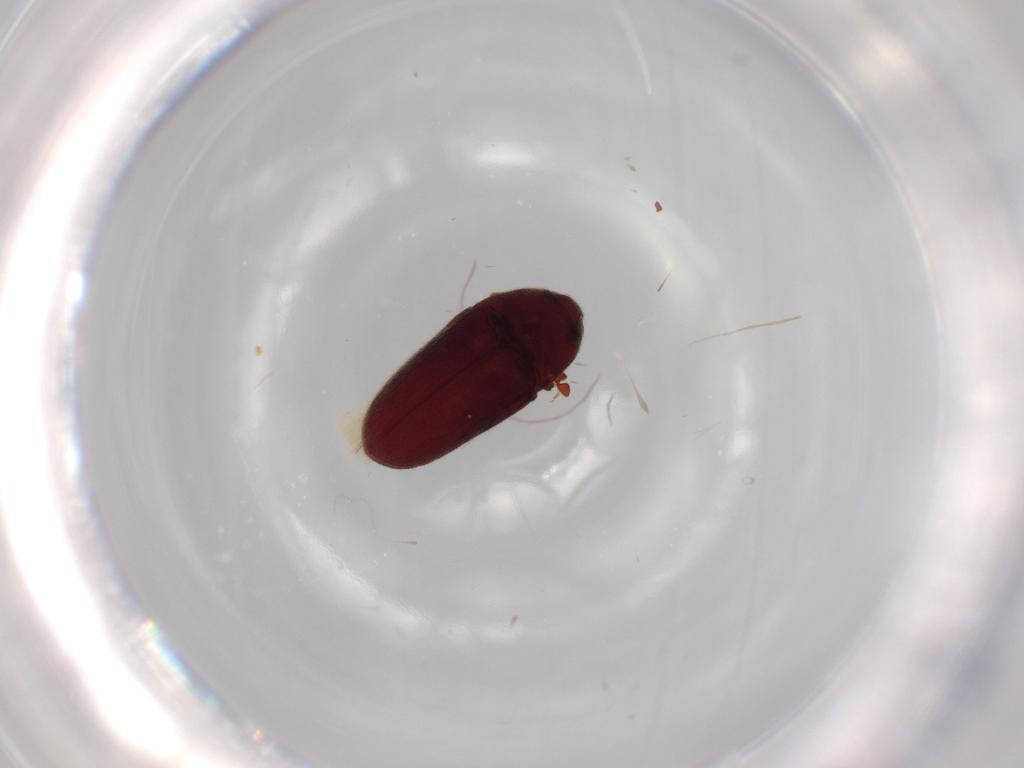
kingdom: Animalia
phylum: Arthropoda
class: Insecta
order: Coleoptera
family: Throscidae
